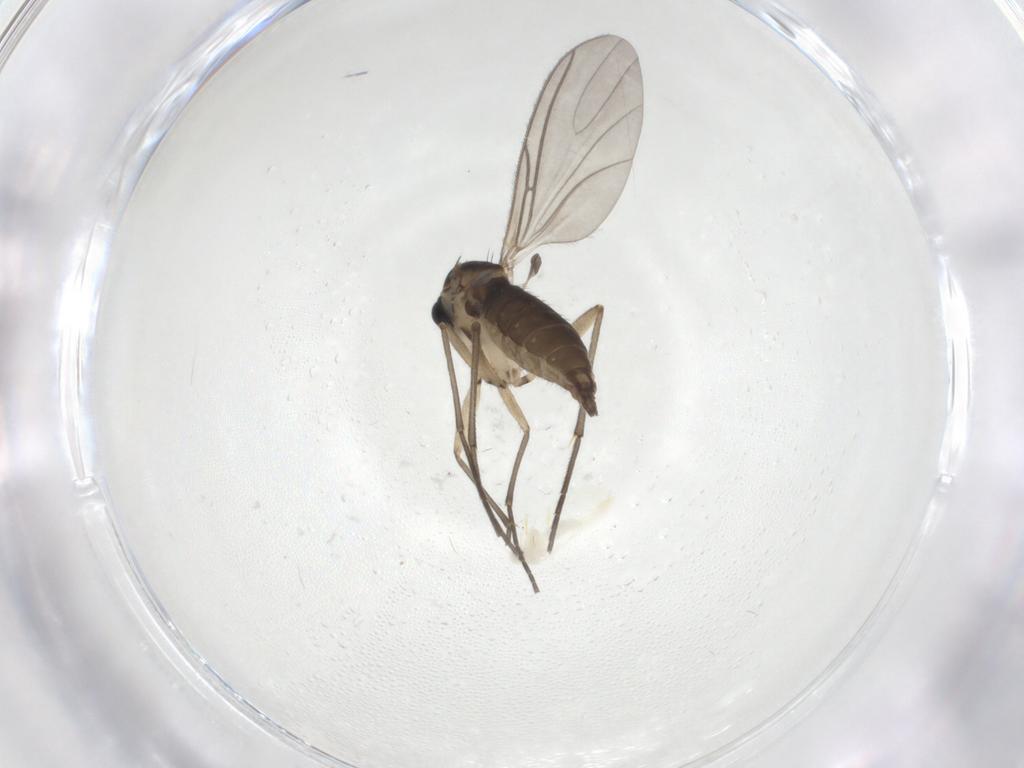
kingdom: Animalia
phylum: Arthropoda
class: Insecta
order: Diptera
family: Sciaridae
